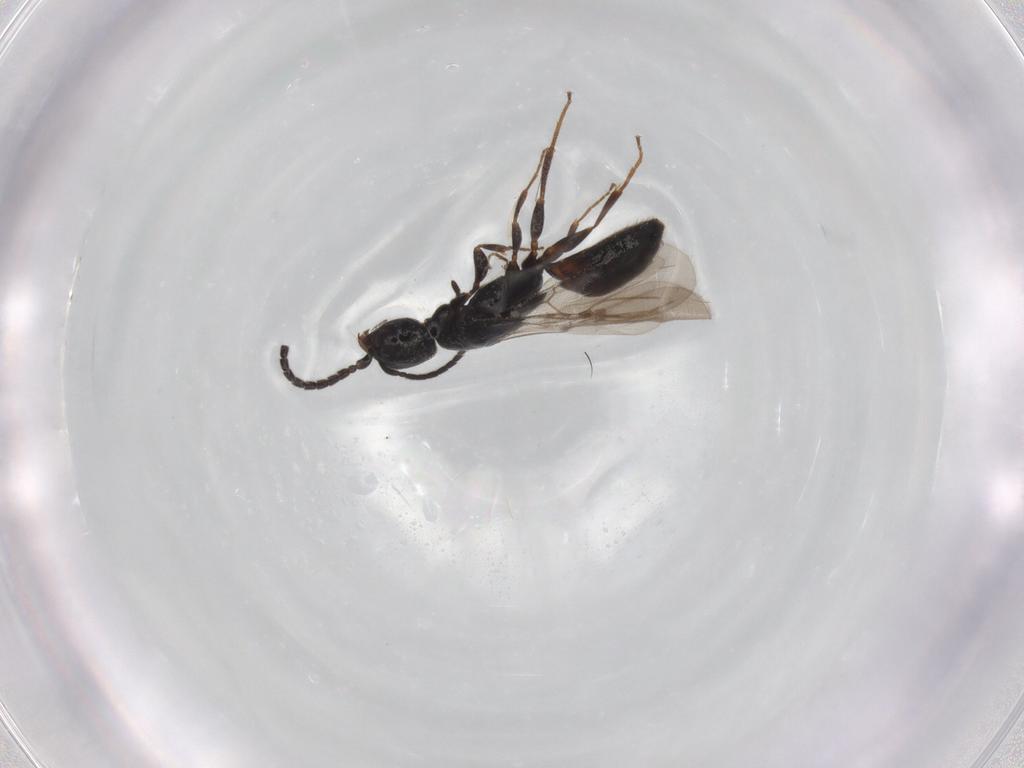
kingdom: Animalia
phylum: Arthropoda
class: Insecta
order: Hymenoptera
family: Bethylidae
